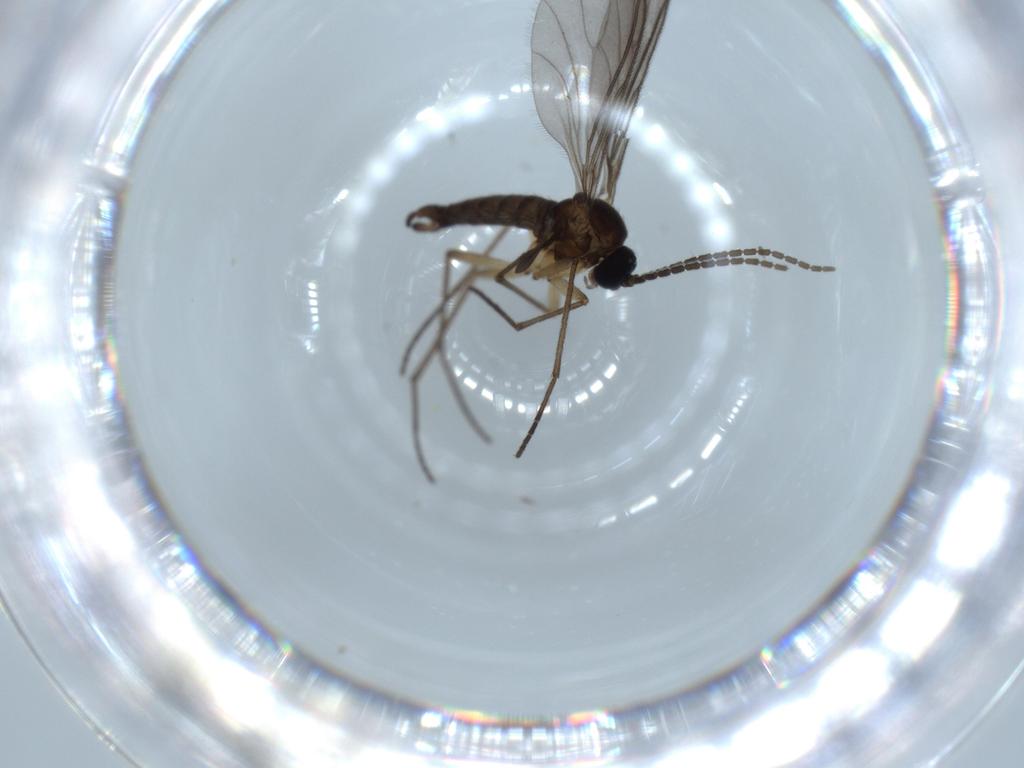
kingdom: Animalia
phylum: Arthropoda
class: Insecta
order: Diptera
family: Sciaridae
